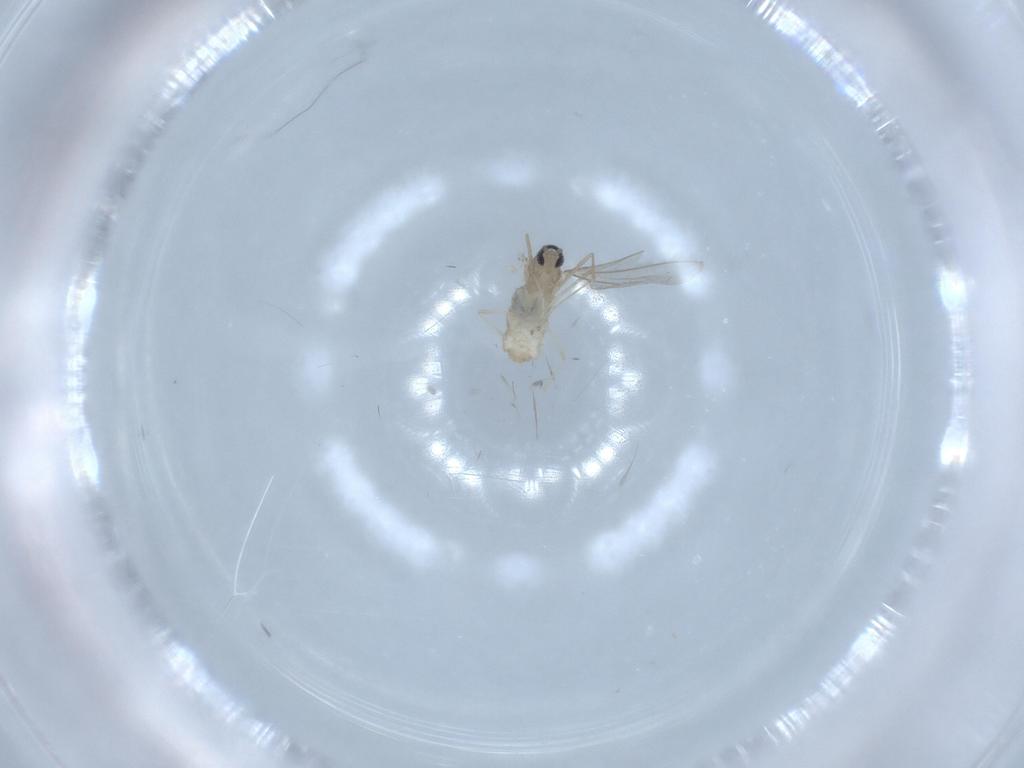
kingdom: Animalia
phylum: Arthropoda
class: Insecta
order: Diptera
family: Cecidomyiidae
